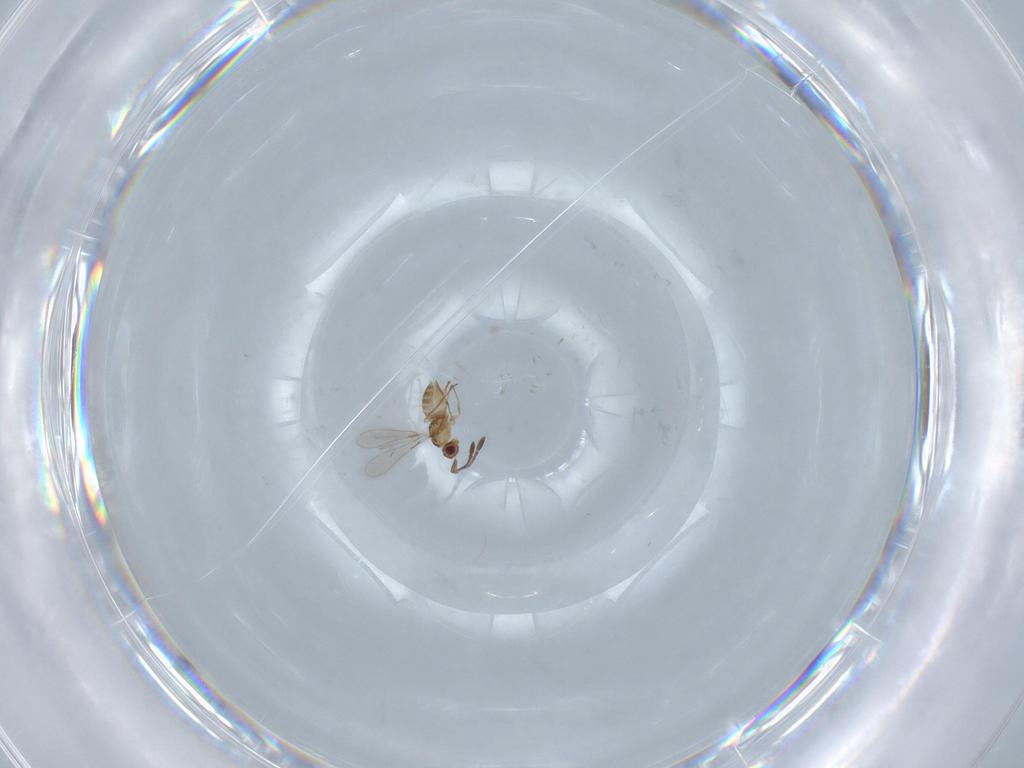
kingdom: Animalia
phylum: Arthropoda
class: Insecta
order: Hymenoptera
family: Mymaridae
